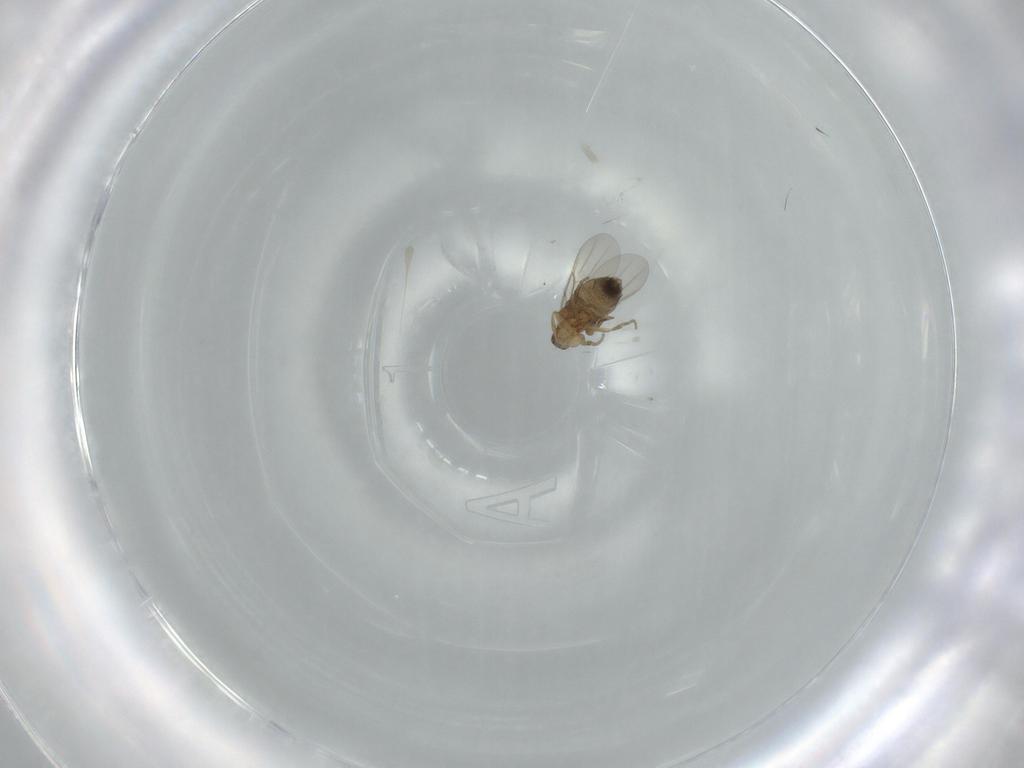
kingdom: Animalia
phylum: Arthropoda
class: Insecta
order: Diptera
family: Phoridae
